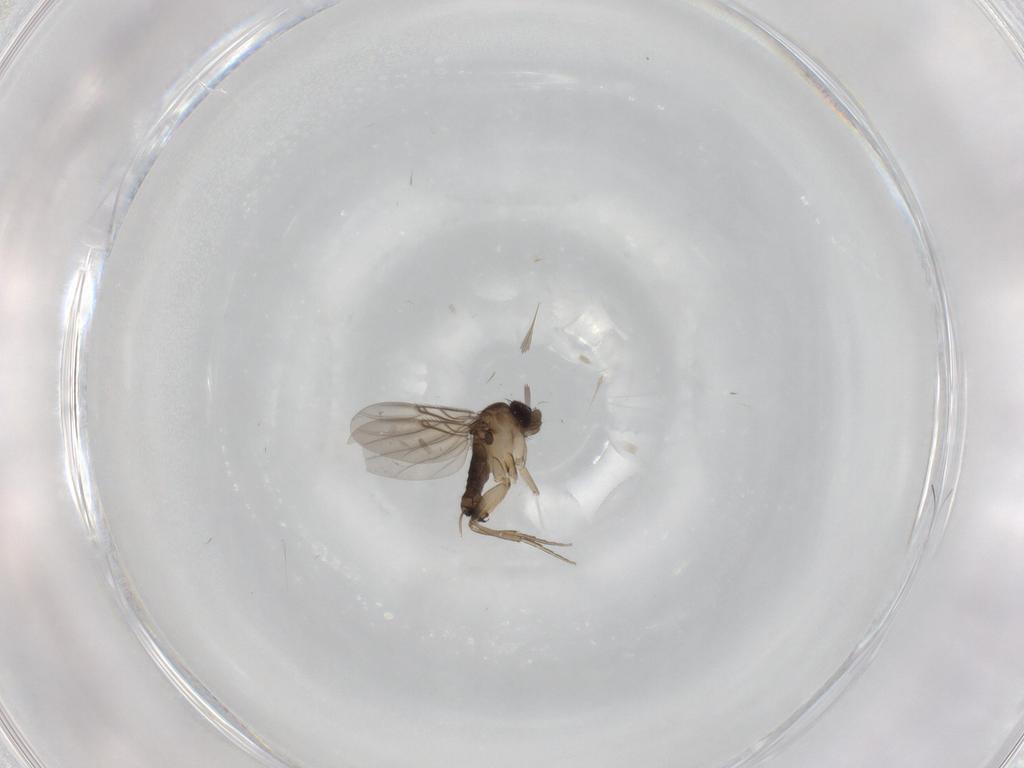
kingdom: Animalia
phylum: Arthropoda
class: Insecta
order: Diptera
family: Phoridae
